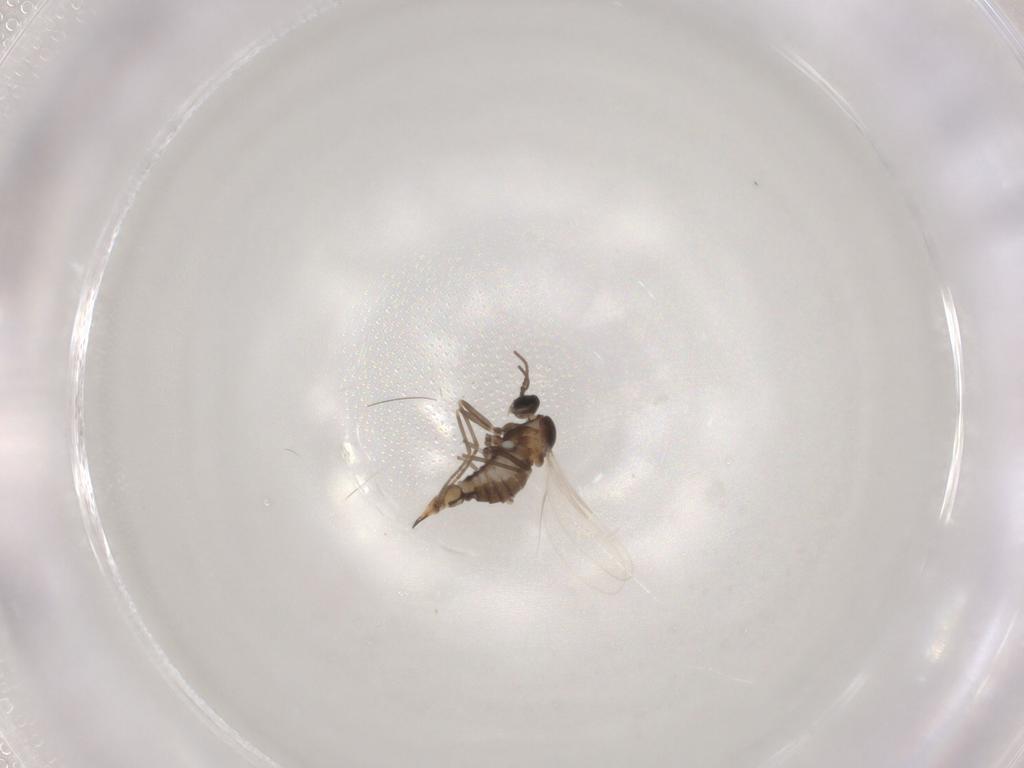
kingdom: Animalia
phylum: Arthropoda
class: Insecta
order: Diptera
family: Cecidomyiidae
